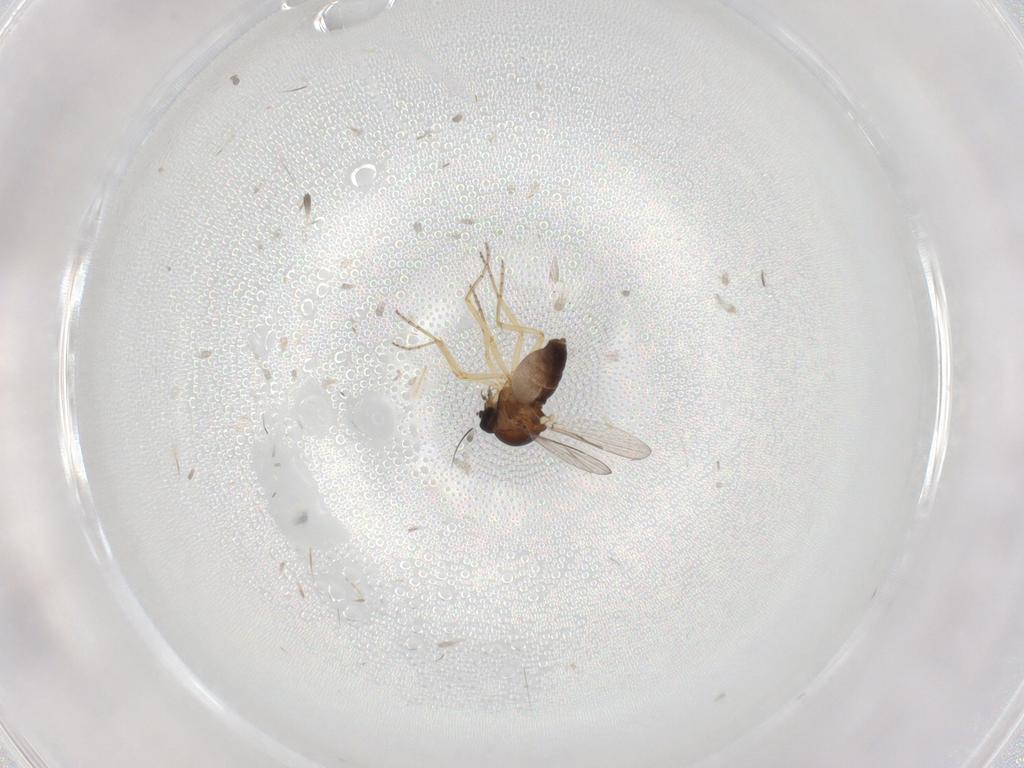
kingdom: Animalia
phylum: Arthropoda
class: Insecta
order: Diptera
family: Ceratopogonidae
